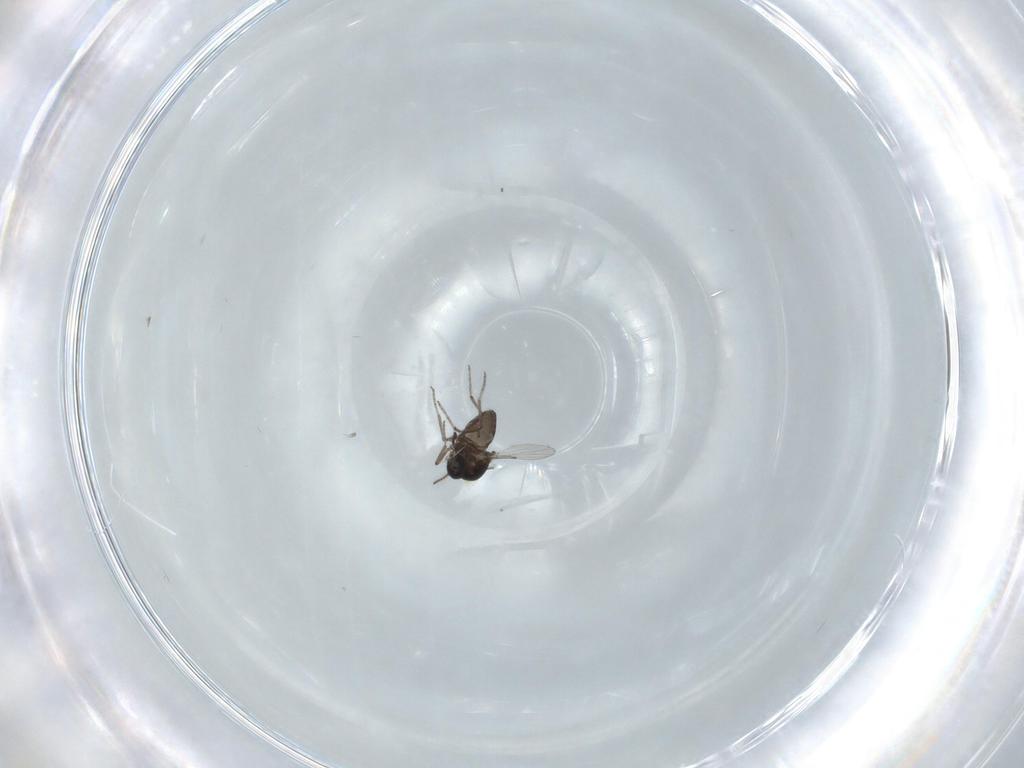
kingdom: Animalia
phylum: Arthropoda
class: Insecta
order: Diptera
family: Ceratopogonidae
